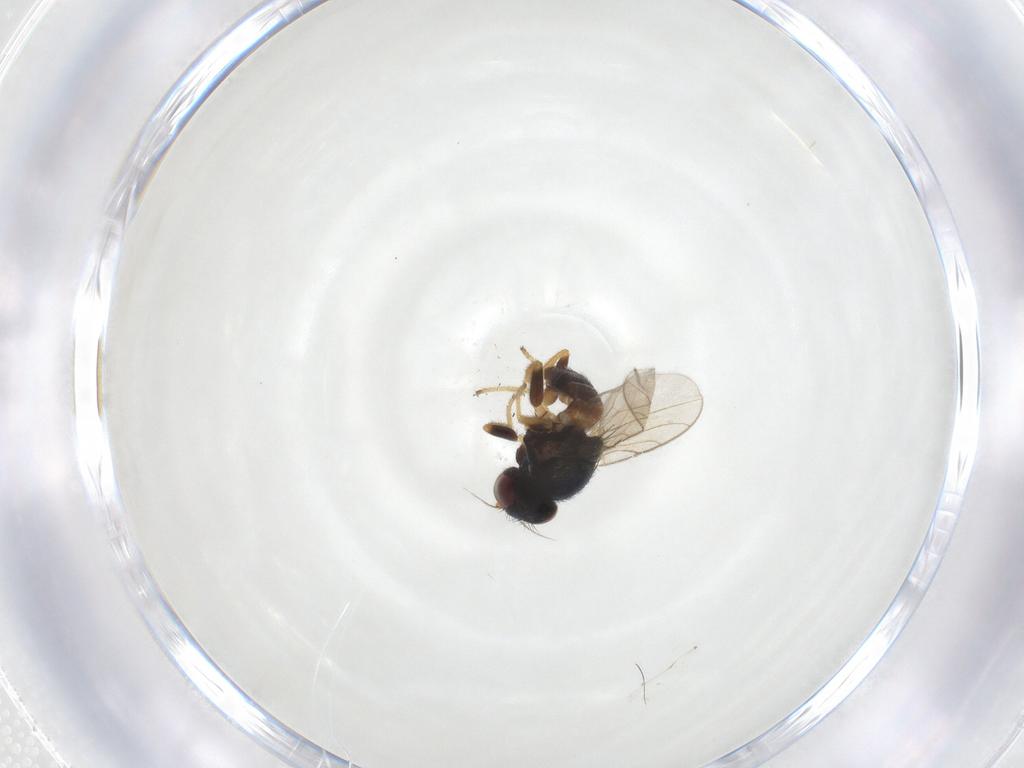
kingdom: Animalia
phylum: Arthropoda
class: Insecta
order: Diptera
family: Chloropidae
